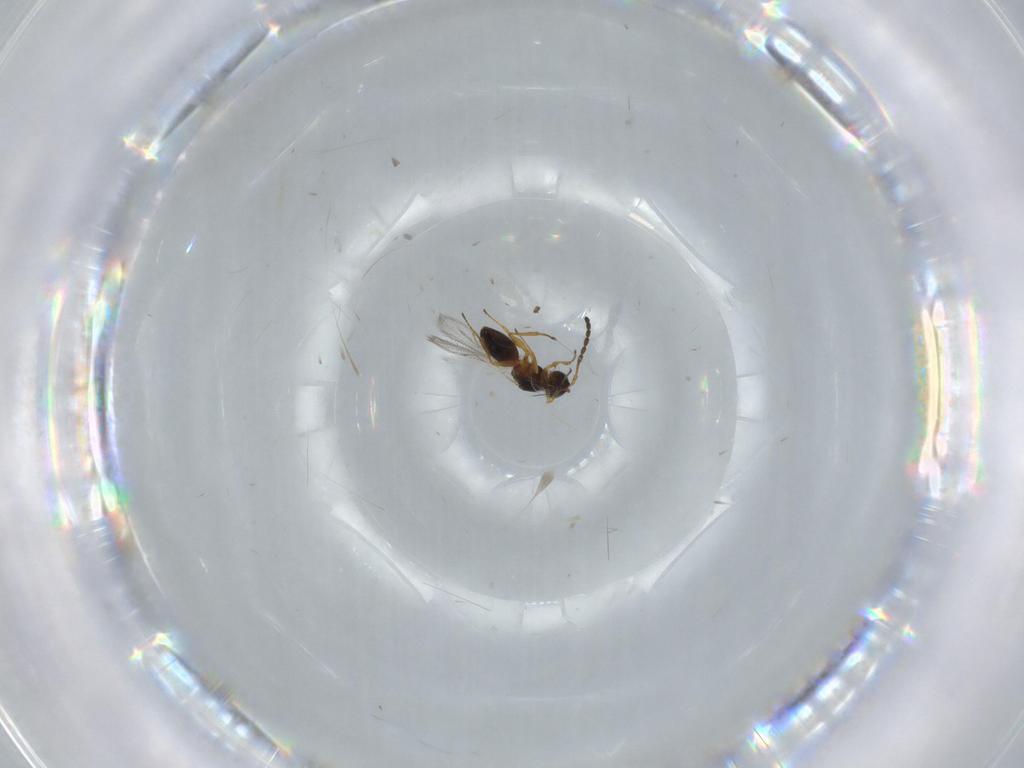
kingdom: Animalia
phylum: Arthropoda
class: Insecta
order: Hymenoptera
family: Figitidae
